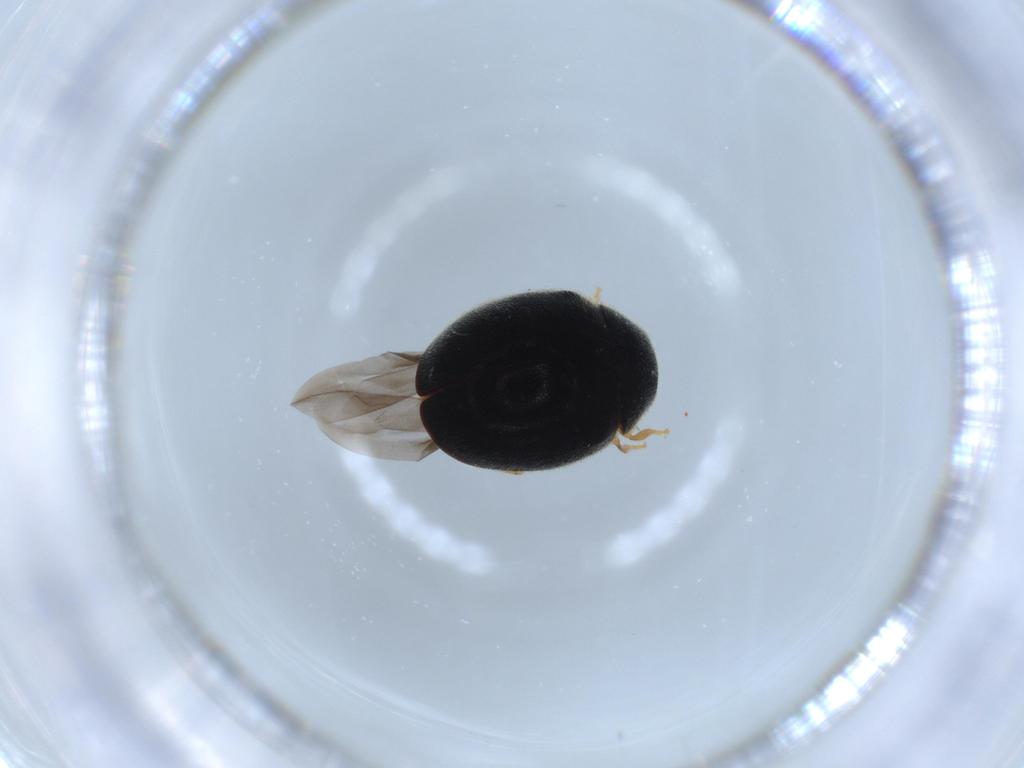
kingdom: Animalia
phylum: Arthropoda
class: Insecta
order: Coleoptera
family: Coccinellidae
